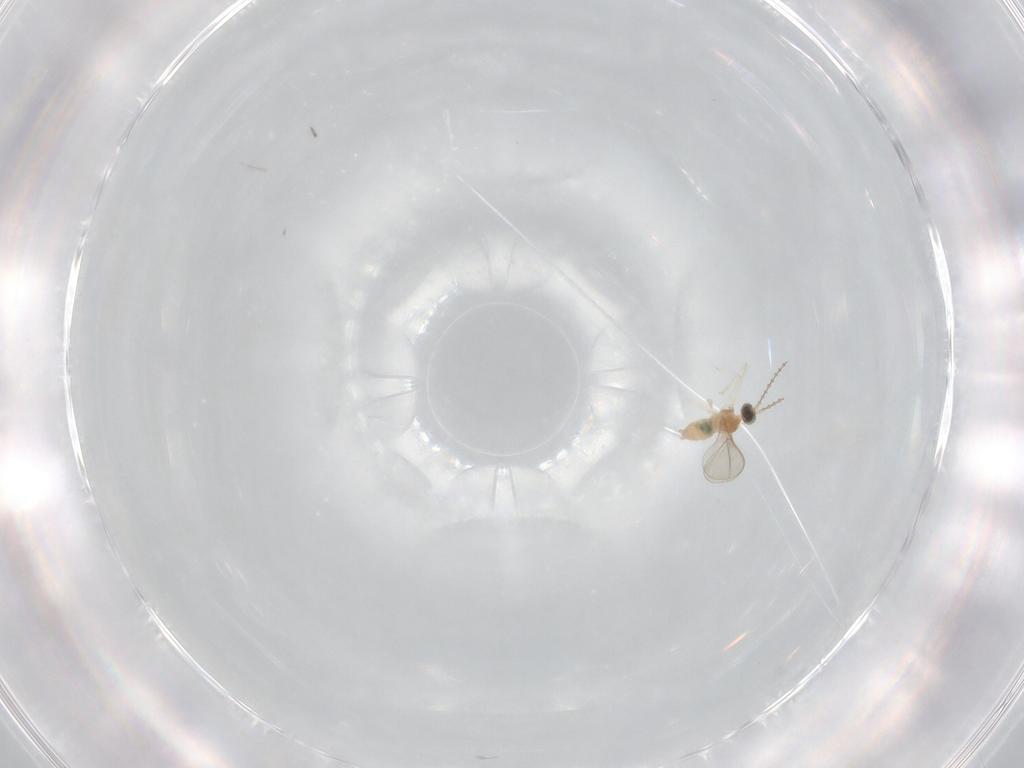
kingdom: Animalia
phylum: Arthropoda
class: Insecta
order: Diptera
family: Cecidomyiidae
